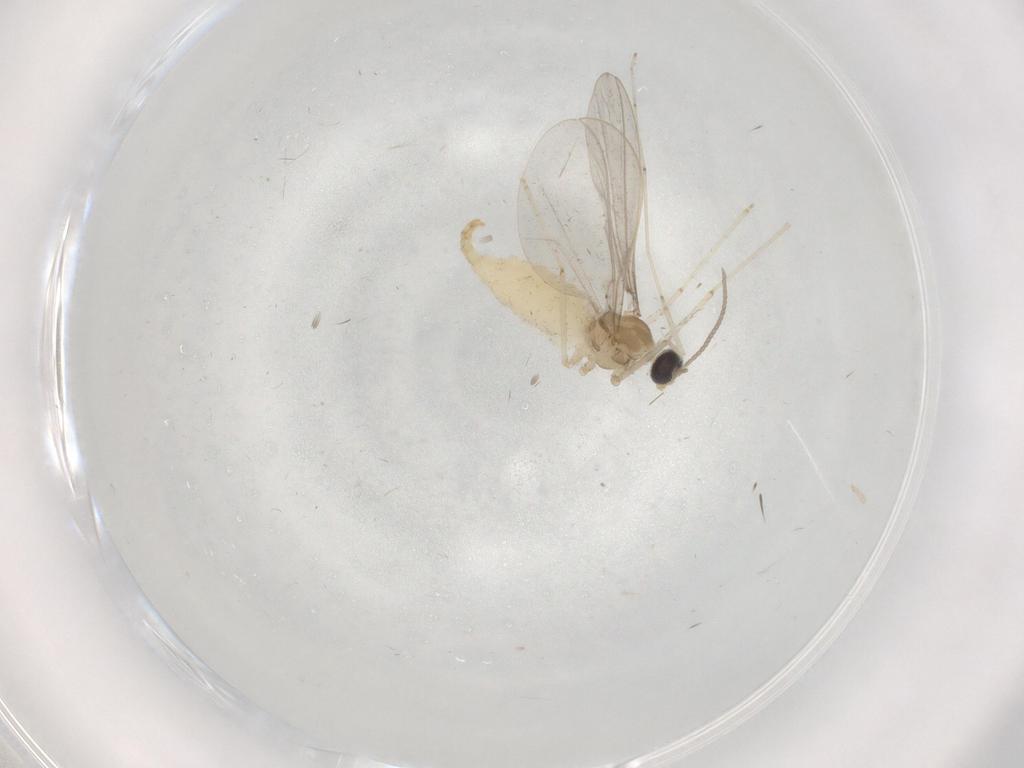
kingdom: Animalia
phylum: Arthropoda
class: Insecta
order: Diptera
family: Cecidomyiidae
